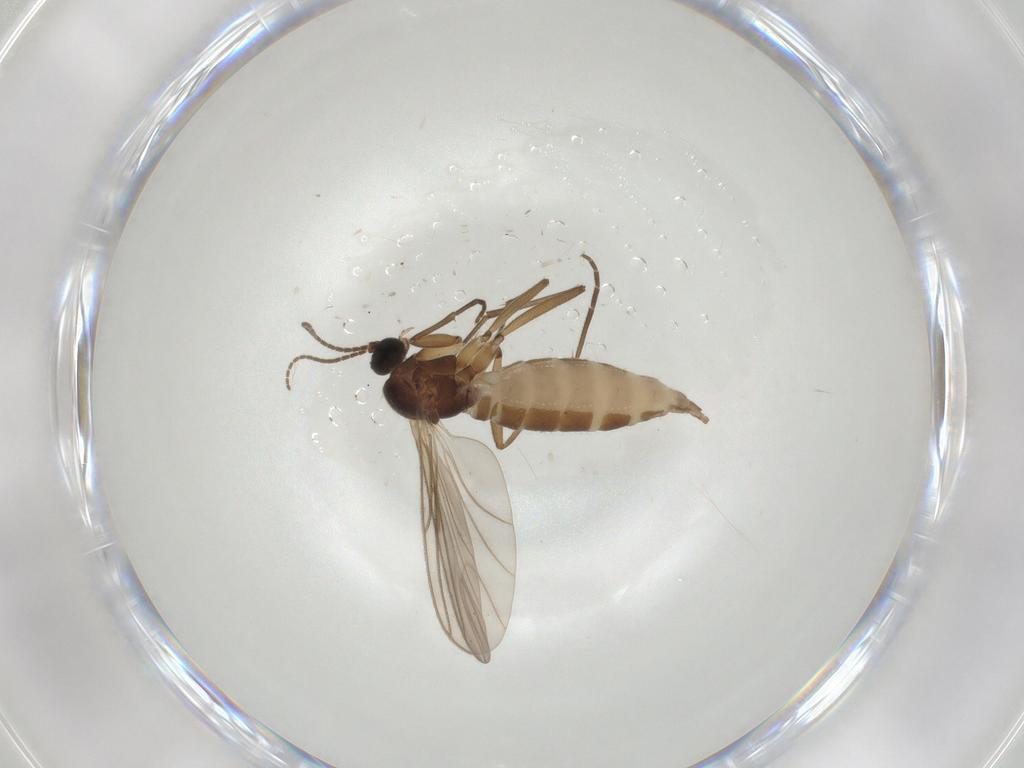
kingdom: Animalia
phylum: Arthropoda
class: Insecta
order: Diptera
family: Sciaridae
